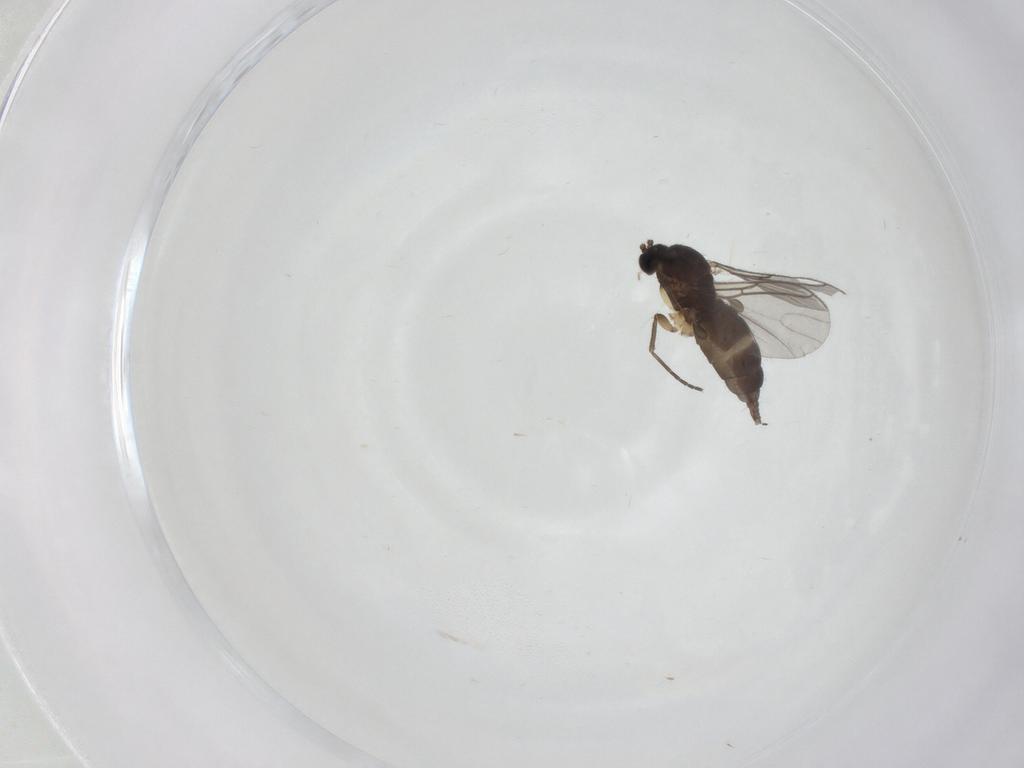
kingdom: Animalia
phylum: Arthropoda
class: Insecta
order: Diptera
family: Sciaridae
